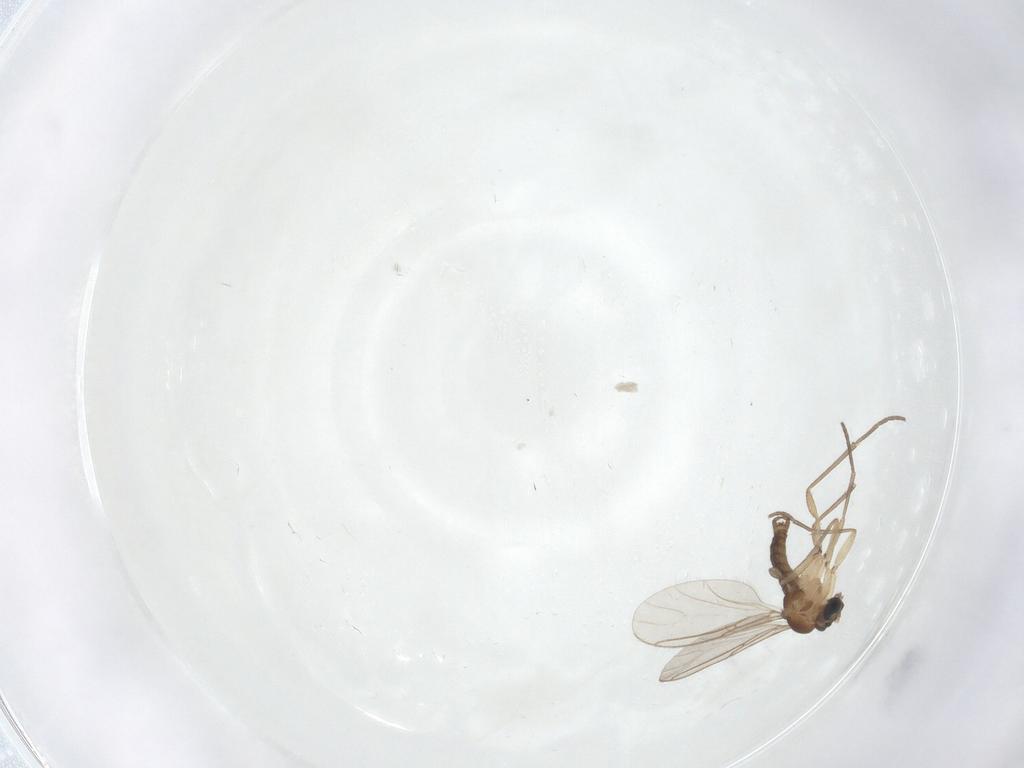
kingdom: Animalia
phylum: Arthropoda
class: Insecta
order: Diptera
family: Sciaridae
